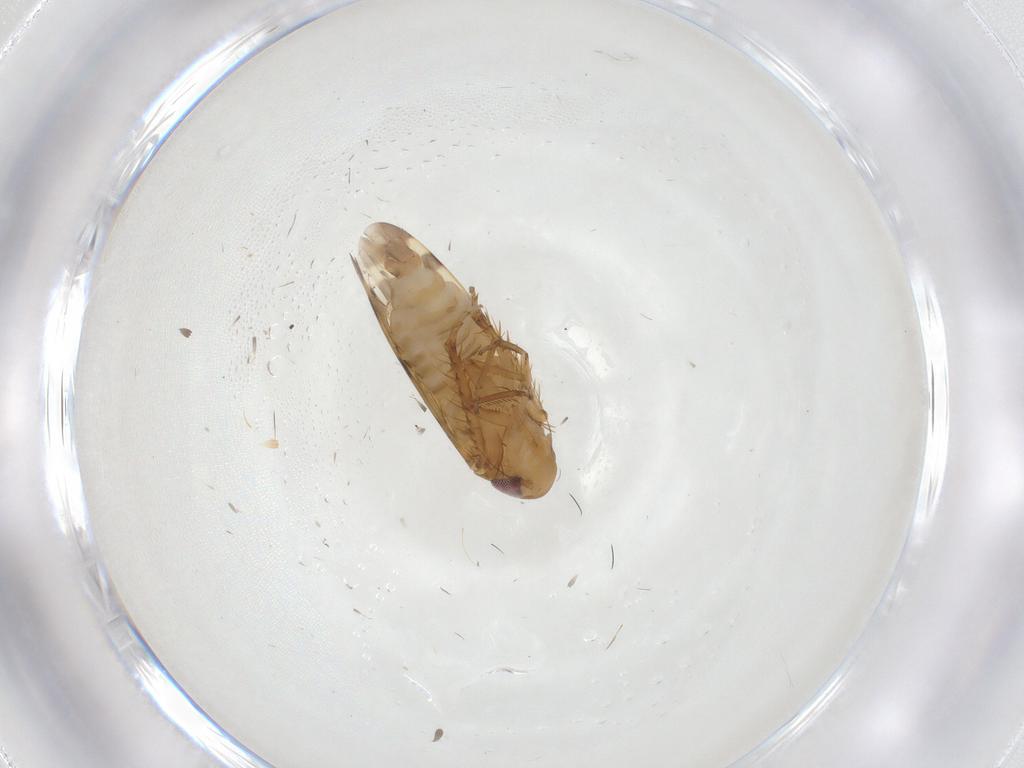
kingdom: Animalia
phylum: Arthropoda
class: Insecta
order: Hemiptera
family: Cicadellidae
